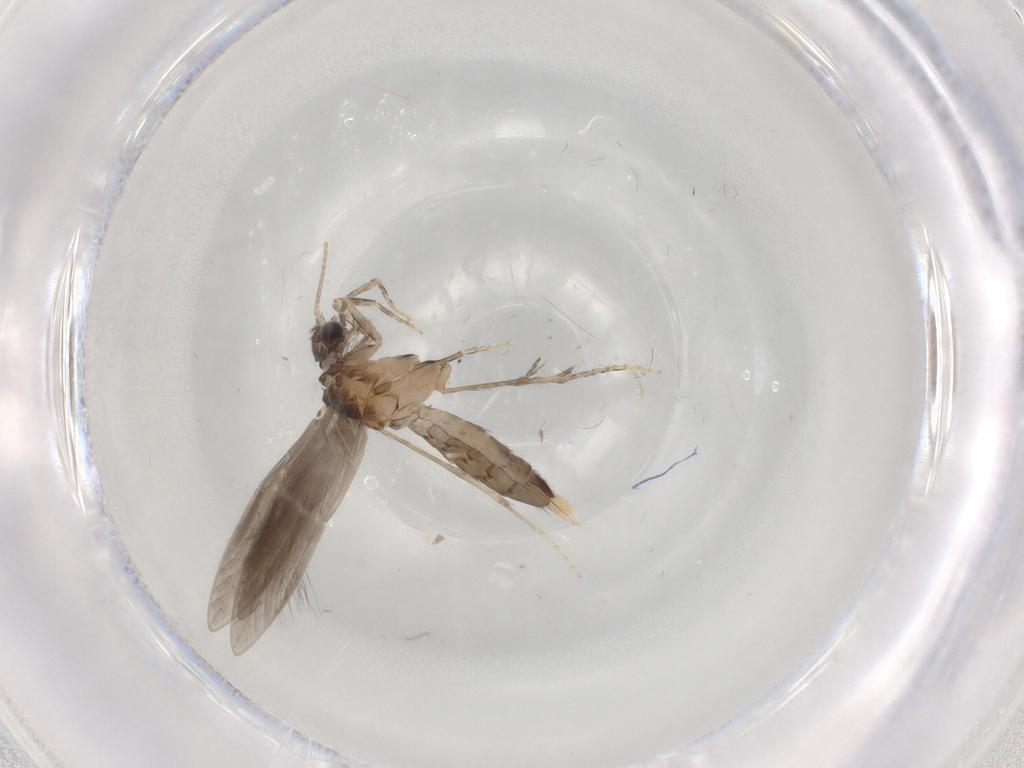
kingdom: Animalia
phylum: Arthropoda
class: Insecta
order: Trichoptera
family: Hydroptilidae
